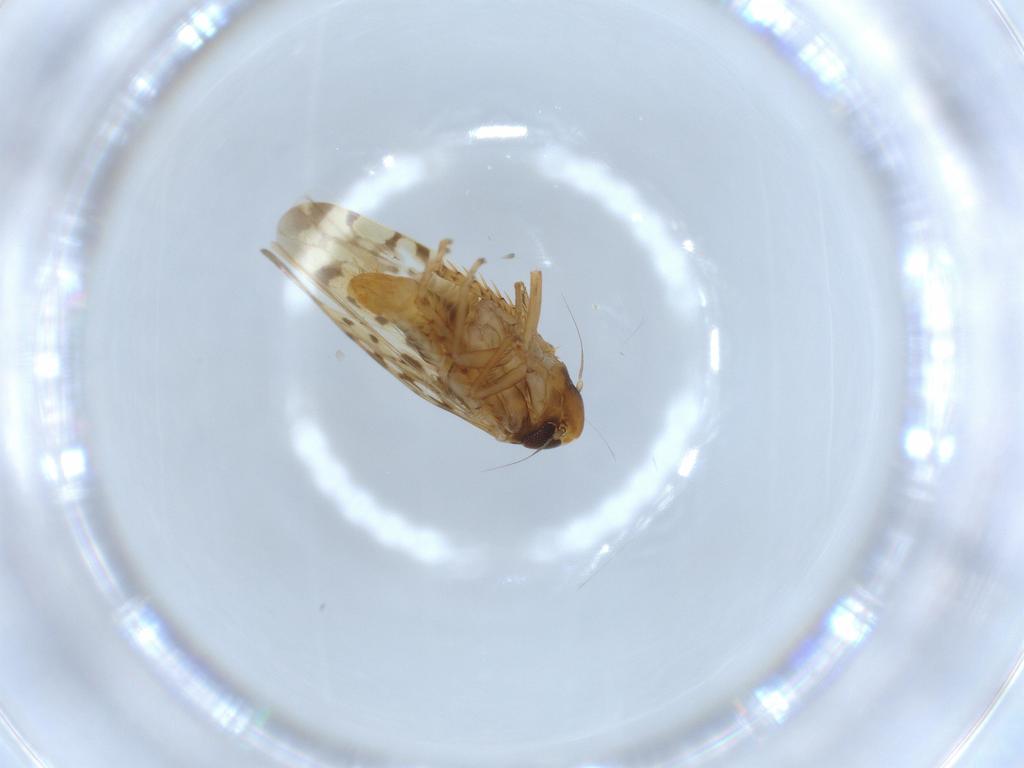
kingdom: Animalia
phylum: Arthropoda
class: Insecta
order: Hemiptera
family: Cicadellidae
